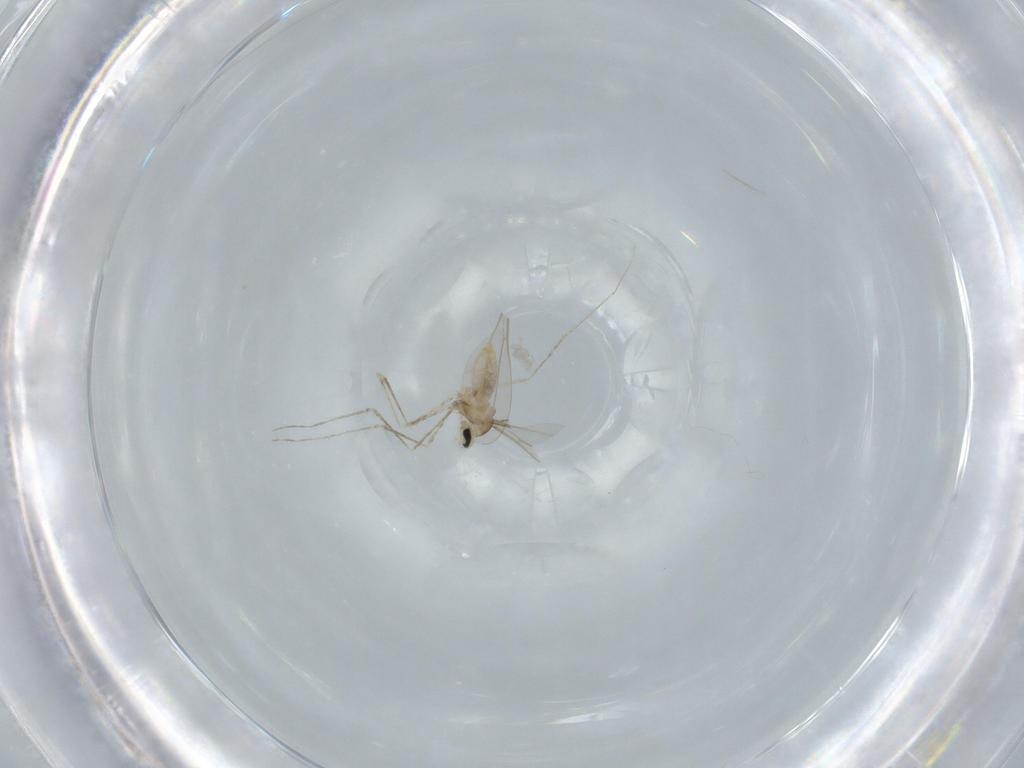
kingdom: Animalia
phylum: Arthropoda
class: Insecta
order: Diptera
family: Cecidomyiidae
